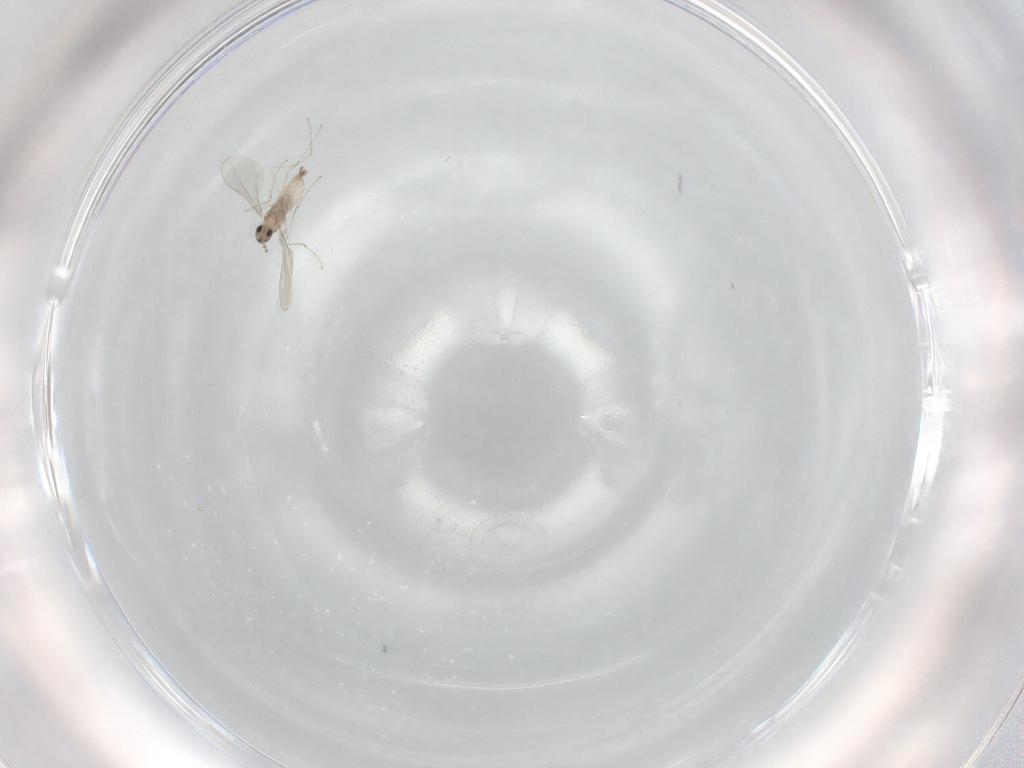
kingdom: Animalia
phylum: Arthropoda
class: Insecta
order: Diptera
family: Cecidomyiidae
